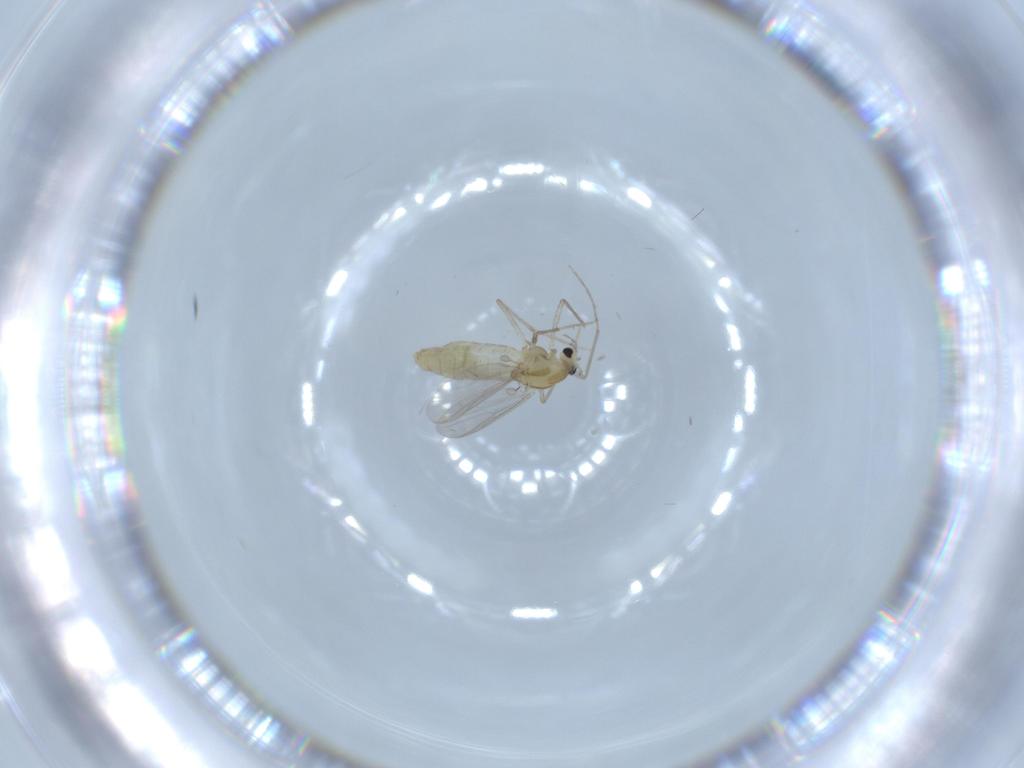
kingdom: Animalia
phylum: Arthropoda
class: Insecta
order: Diptera
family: Chironomidae
